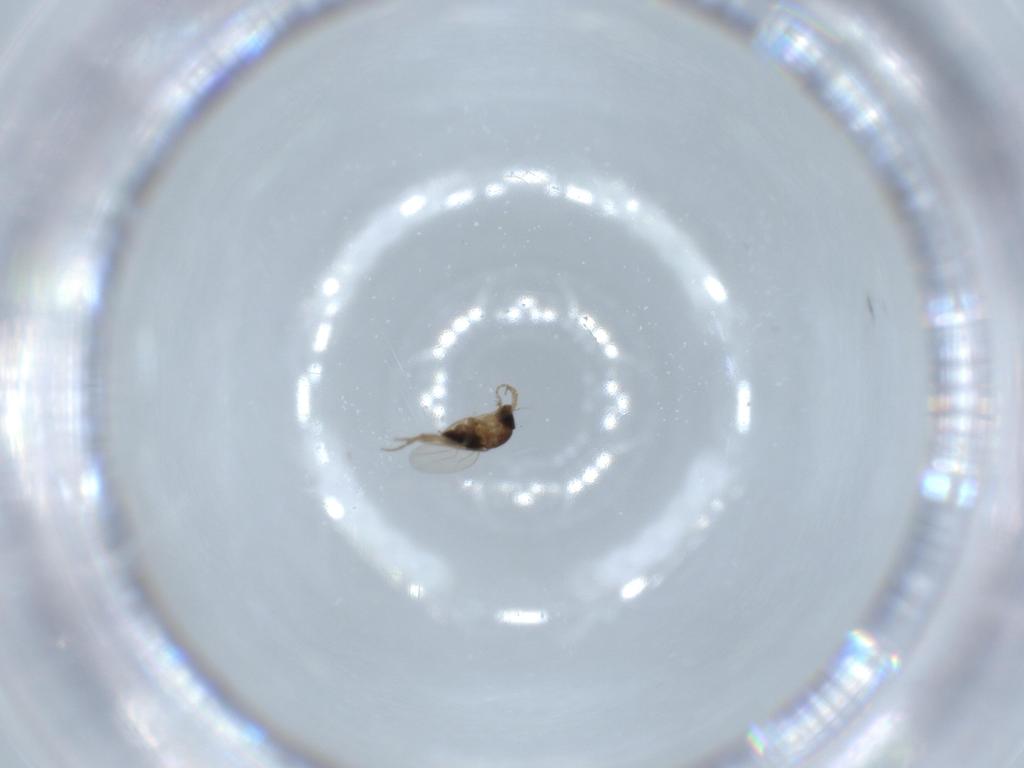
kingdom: Animalia
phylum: Arthropoda
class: Insecta
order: Diptera
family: Phoridae
